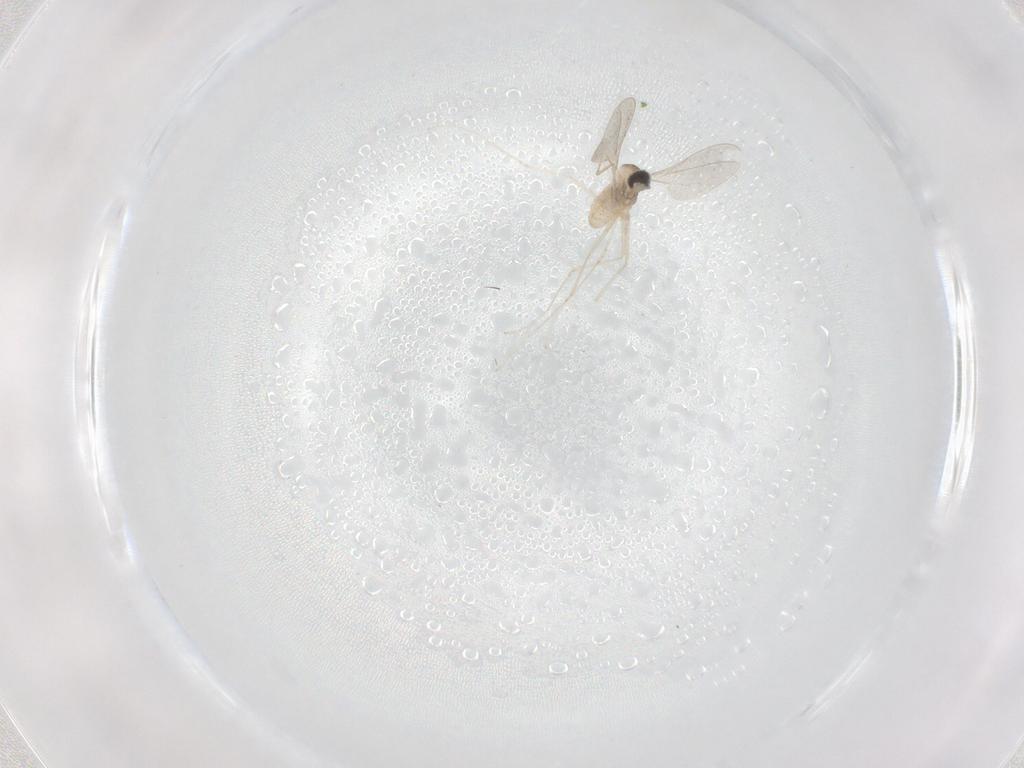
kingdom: Animalia
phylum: Arthropoda
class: Insecta
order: Diptera
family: Cecidomyiidae
